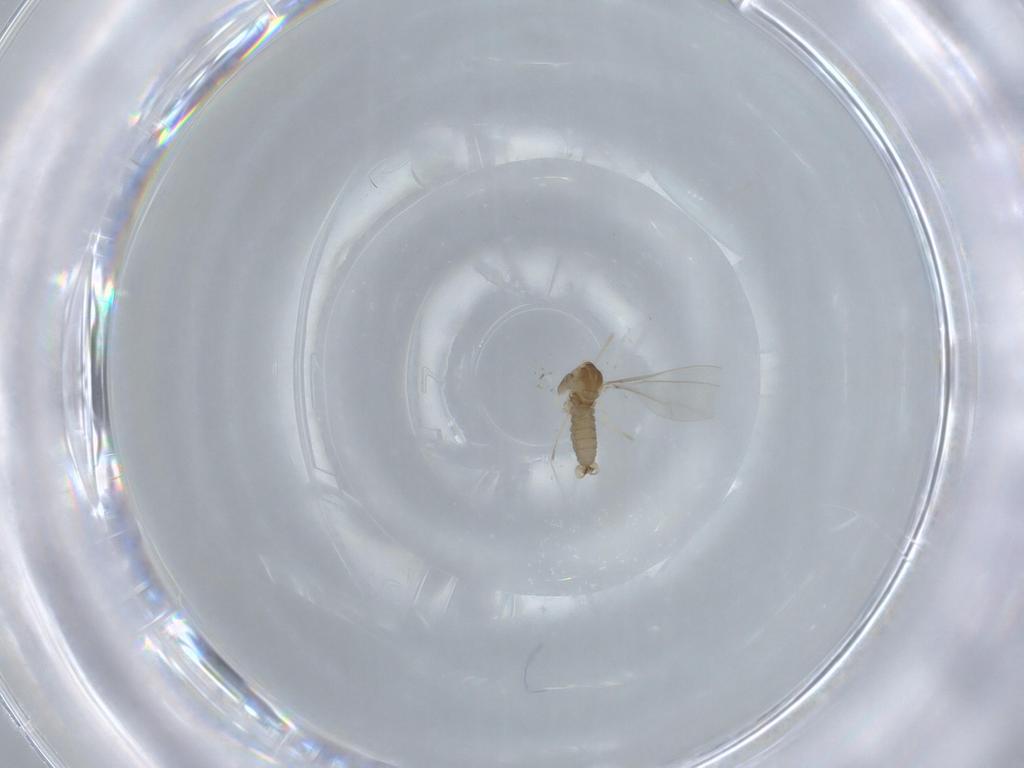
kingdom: Animalia
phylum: Arthropoda
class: Insecta
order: Diptera
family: Cecidomyiidae
